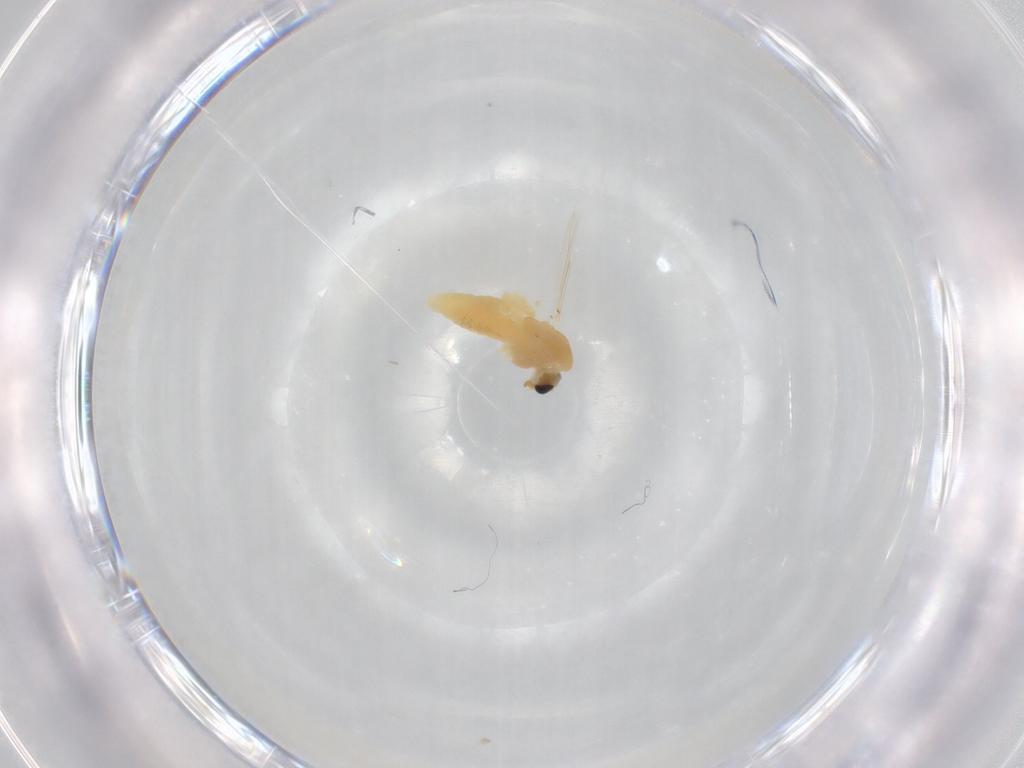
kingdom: Animalia
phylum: Arthropoda
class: Insecta
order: Diptera
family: Chironomidae
